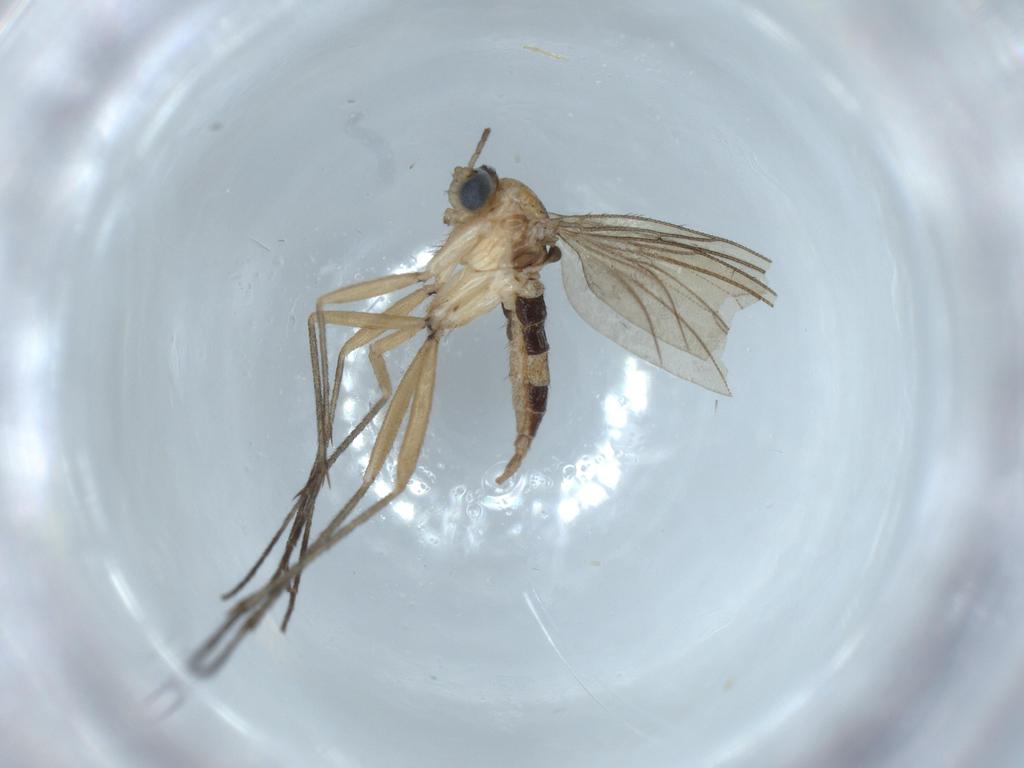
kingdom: Animalia
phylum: Arthropoda
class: Insecta
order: Diptera
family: Sciaridae
